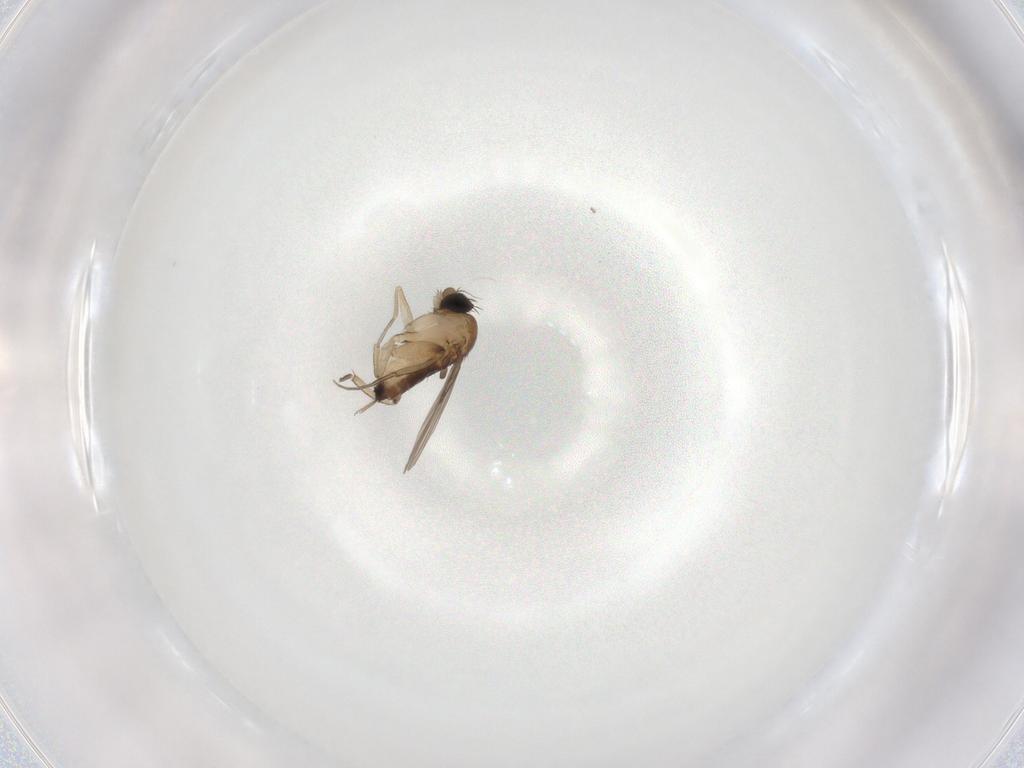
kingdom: Animalia
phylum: Arthropoda
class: Insecta
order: Diptera
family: Phoridae
